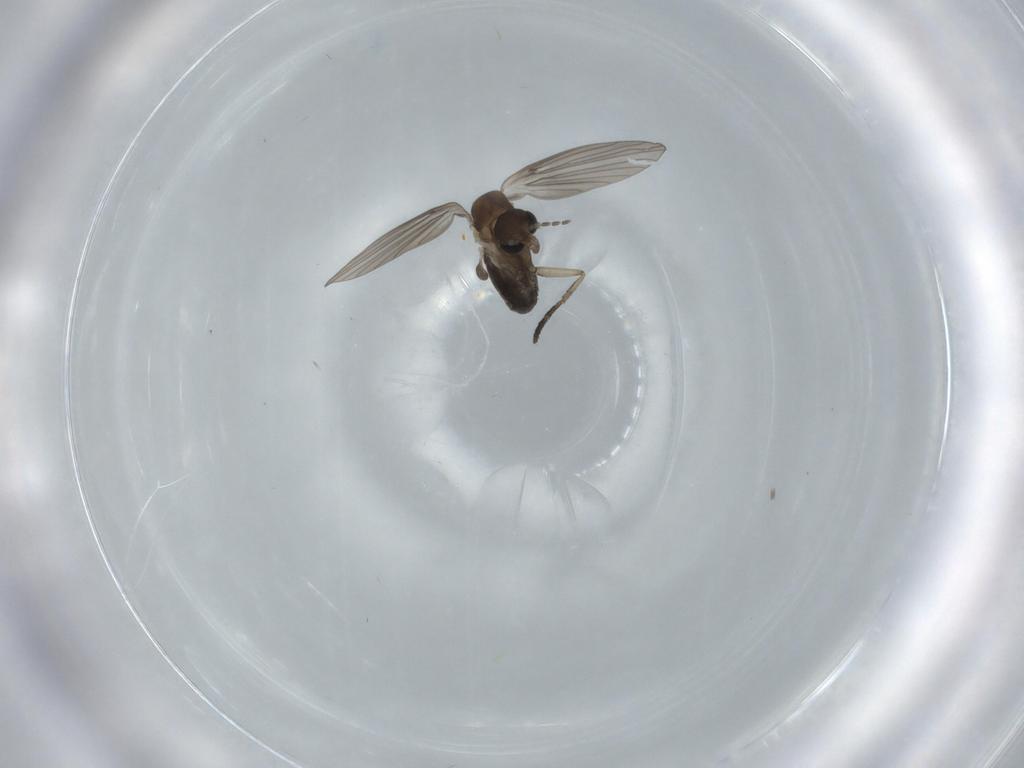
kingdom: Animalia
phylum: Arthropoda
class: Insecta
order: Diptera
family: Psychodidae
